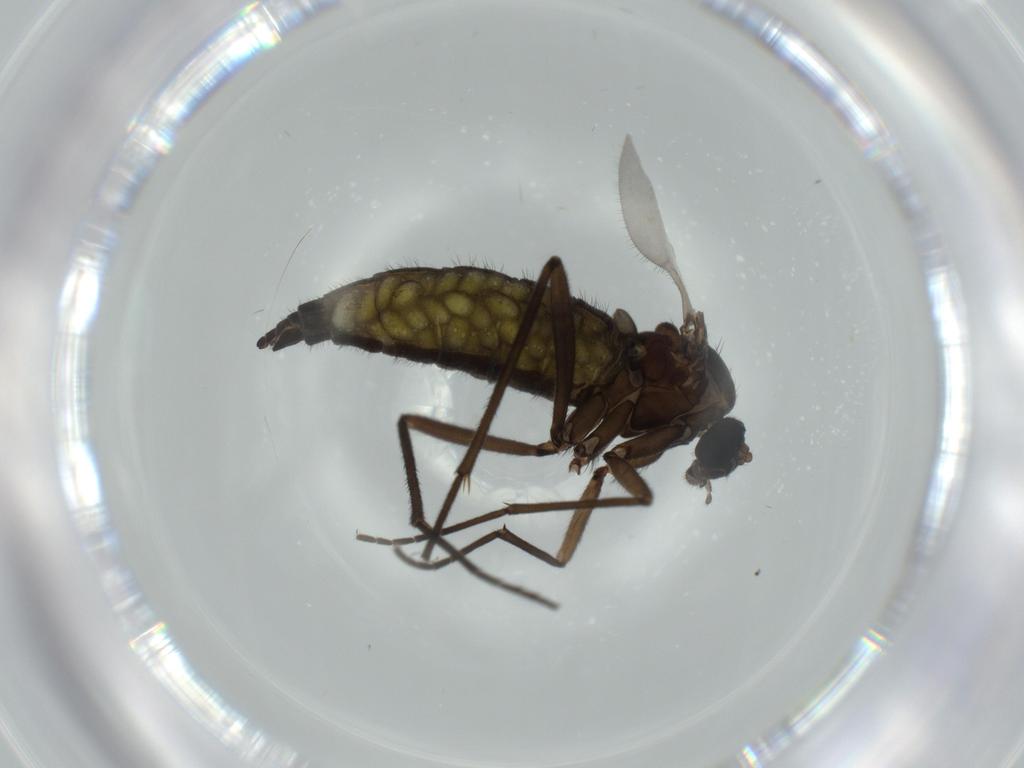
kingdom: Animalia
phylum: Arthropoda
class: Insecta
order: Diptera
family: Sciaridae
